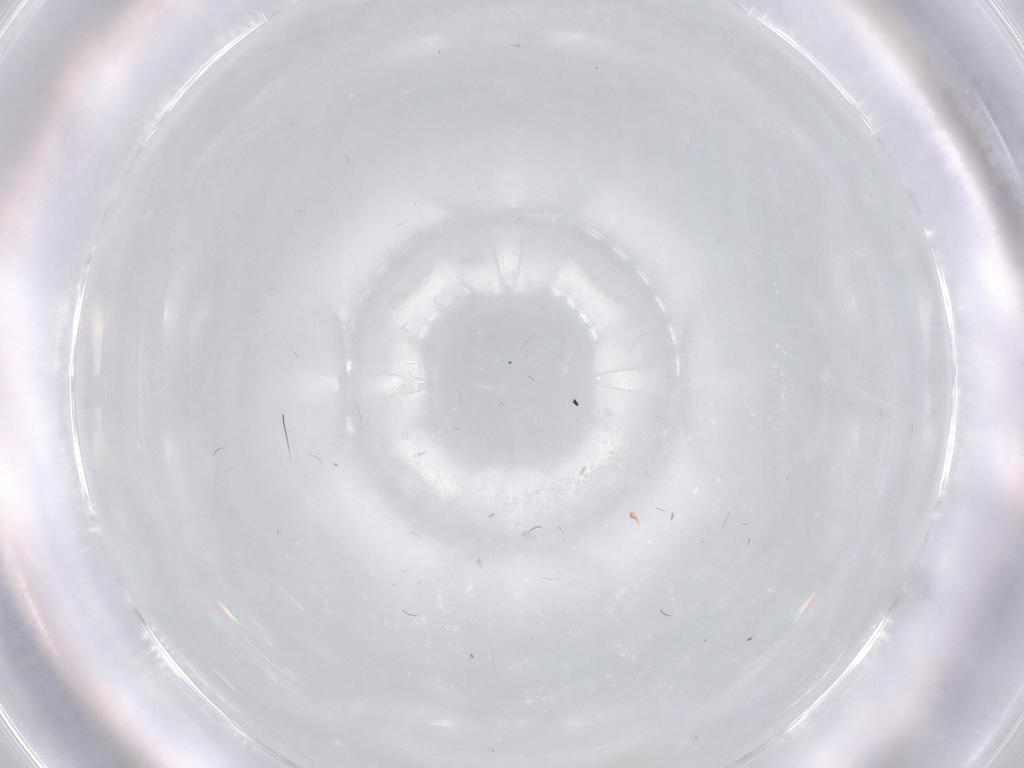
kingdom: Animalia
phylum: Arthropoda
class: Insecta
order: Diptera
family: Cecidomyiidae
